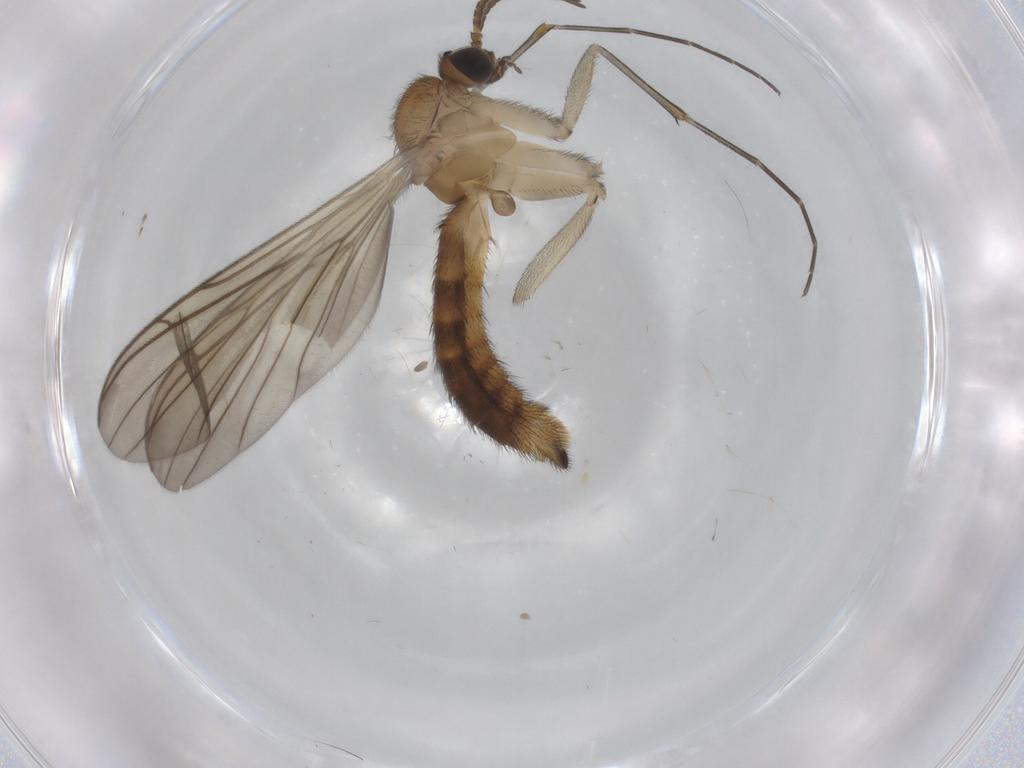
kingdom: Animalia
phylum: Arthropoda
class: Insecta
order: Diptera
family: Keroplatidae
